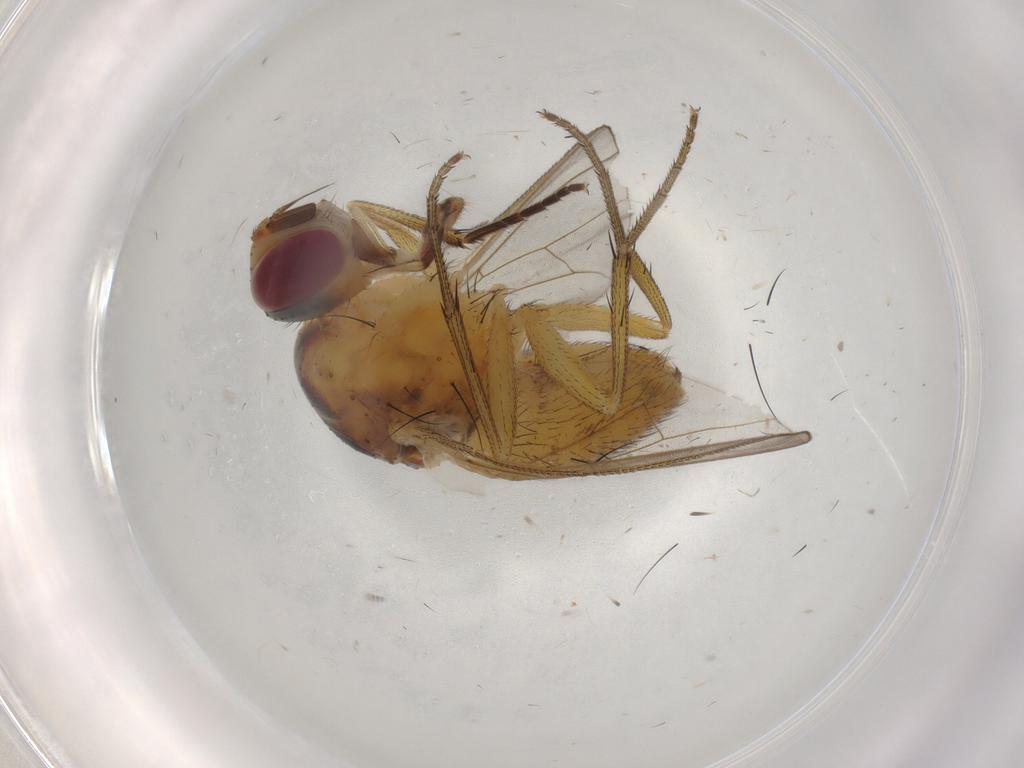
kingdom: Animalia
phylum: Arthropoda
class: Insecta
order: Diptera
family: Muscidae
